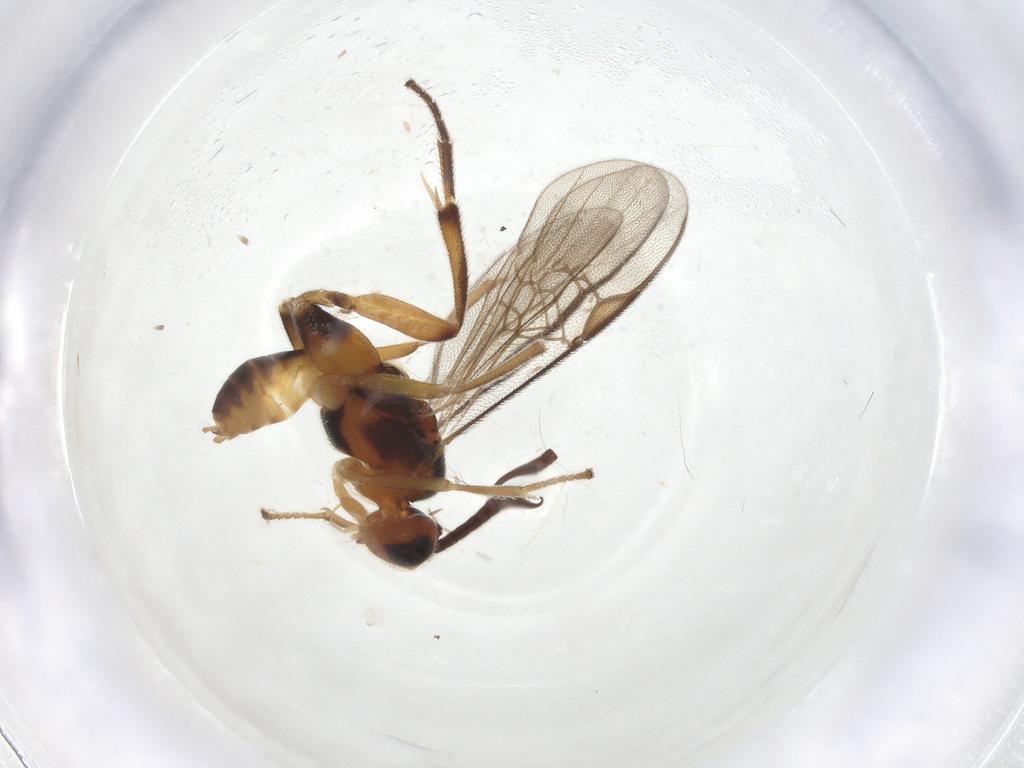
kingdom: Animalia
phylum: Arthropoda
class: Insecta
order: Hymenoptera
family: Braconidae
